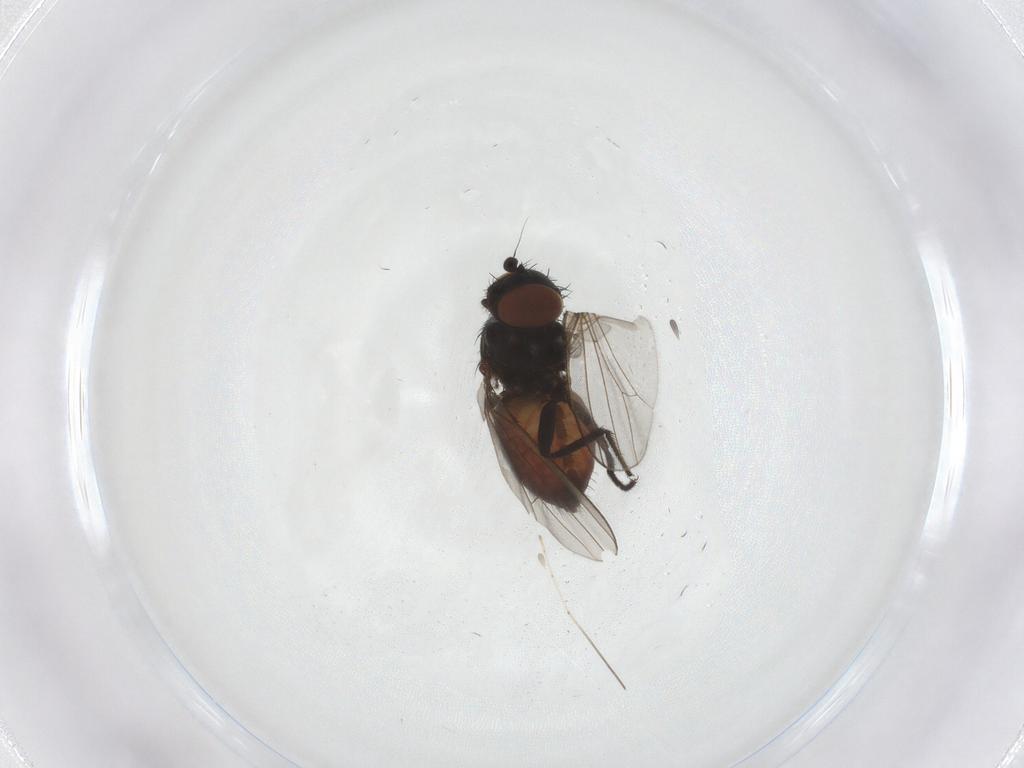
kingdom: Animalia
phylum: Arthropoda
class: Insecta
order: Diptera
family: Milichiidae
